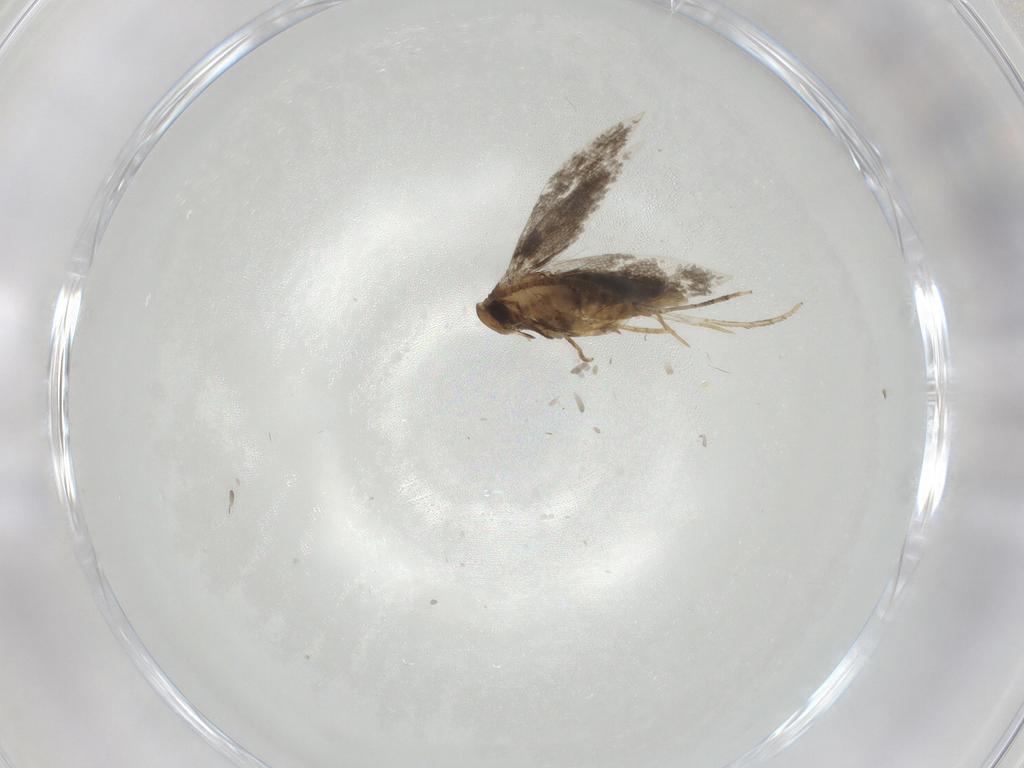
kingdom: Animalia
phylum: Arthropoda
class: Insecta
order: Lepidoptera
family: Heliozelidae
